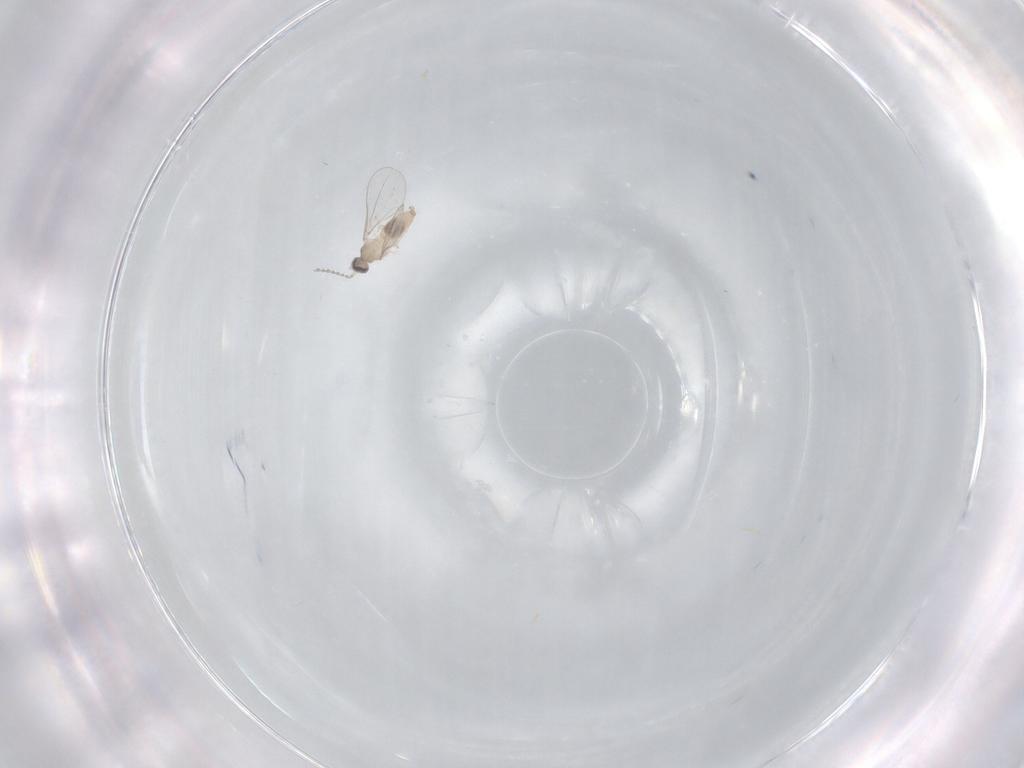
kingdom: Animalia
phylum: Arthropoda
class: Insecta
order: Diptera
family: Cecidomyiidae
